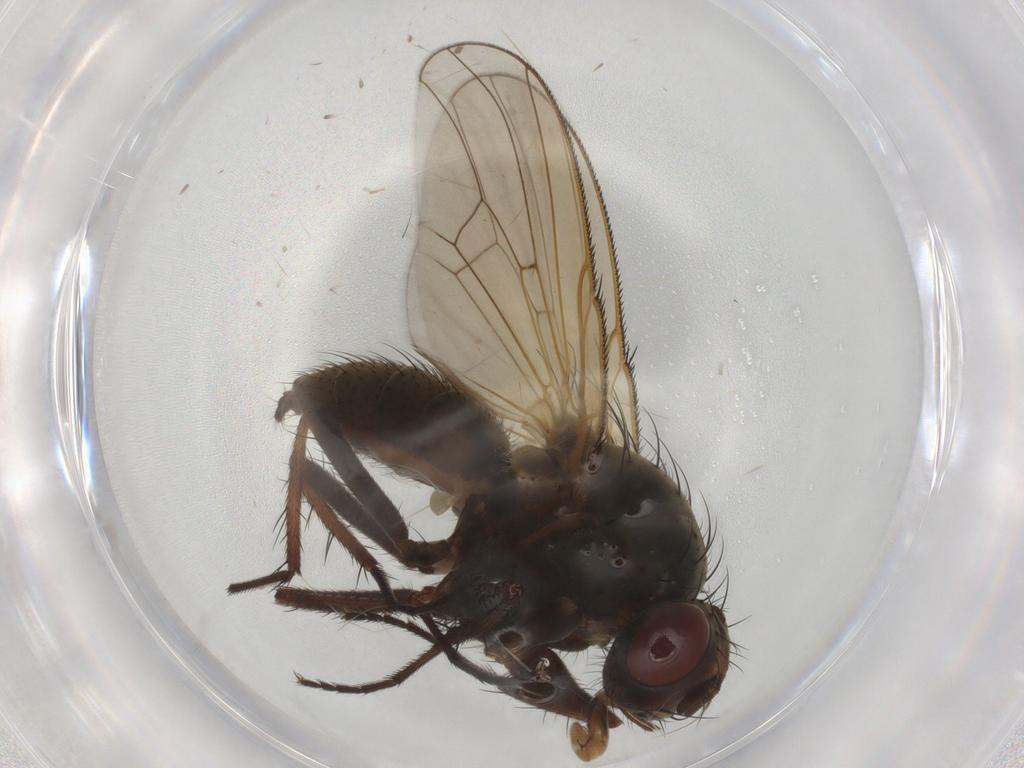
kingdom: Animalia
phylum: Arthropoda
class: Insecta
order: Diptera
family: Anthomyiidae
